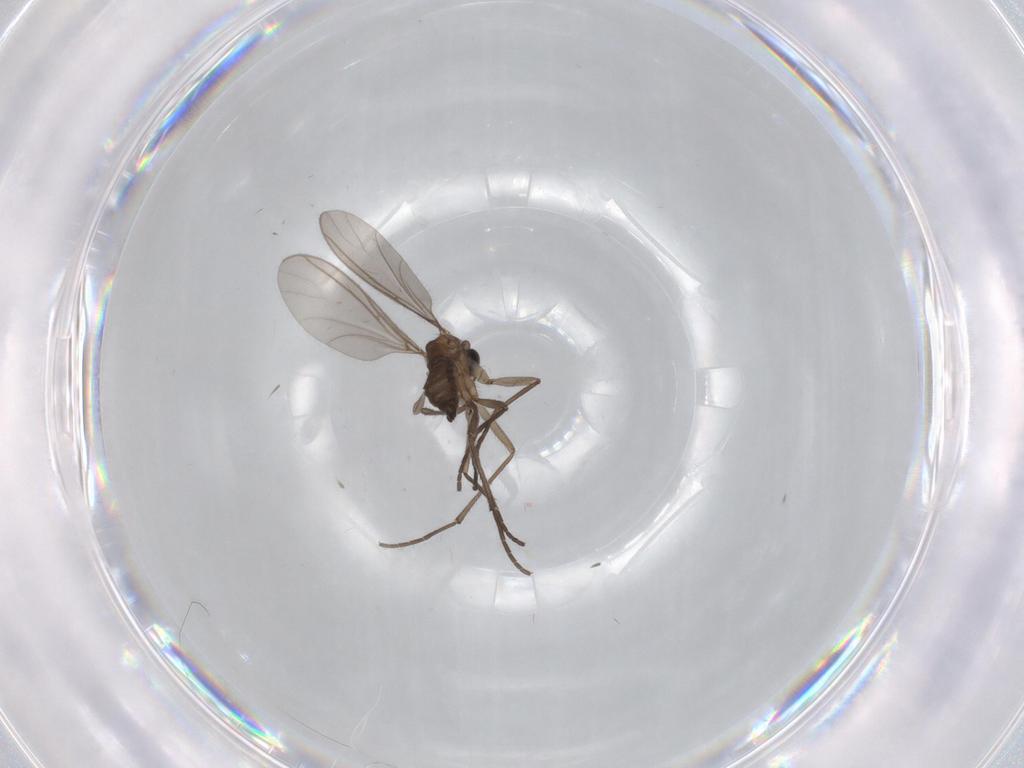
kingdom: Animalia
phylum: Arthropoda
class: Insecta
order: Diptera
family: Sciaridae
